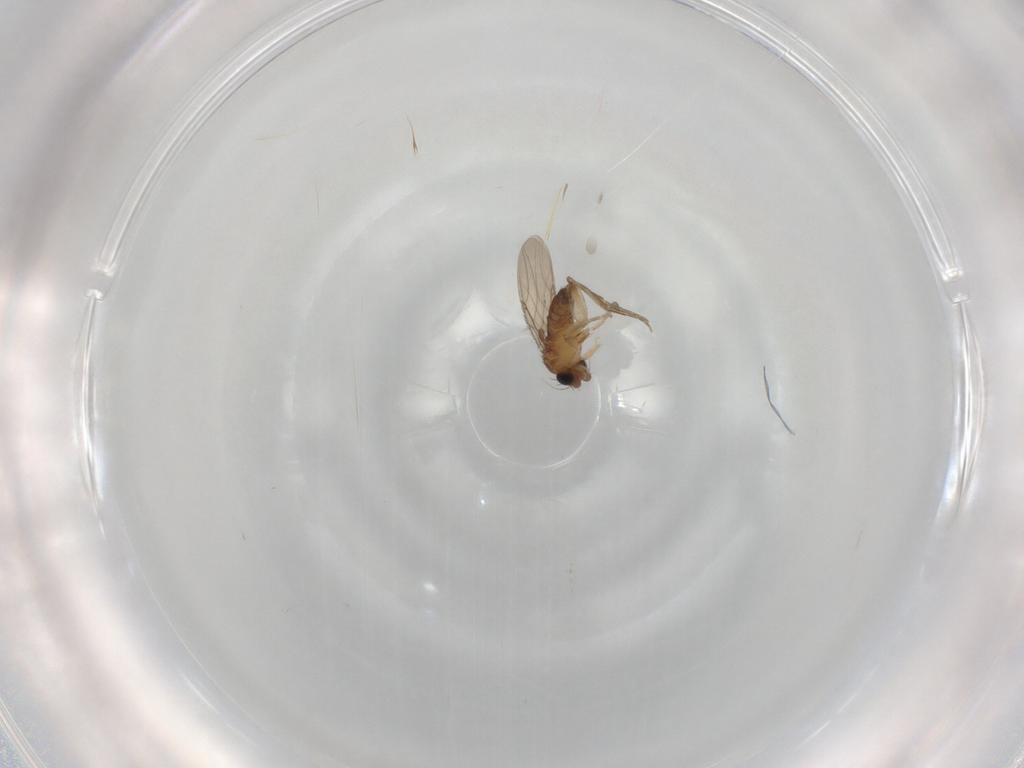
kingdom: Animalia
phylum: Arthropoda
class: Insecta
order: Diptera
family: Phoridae
